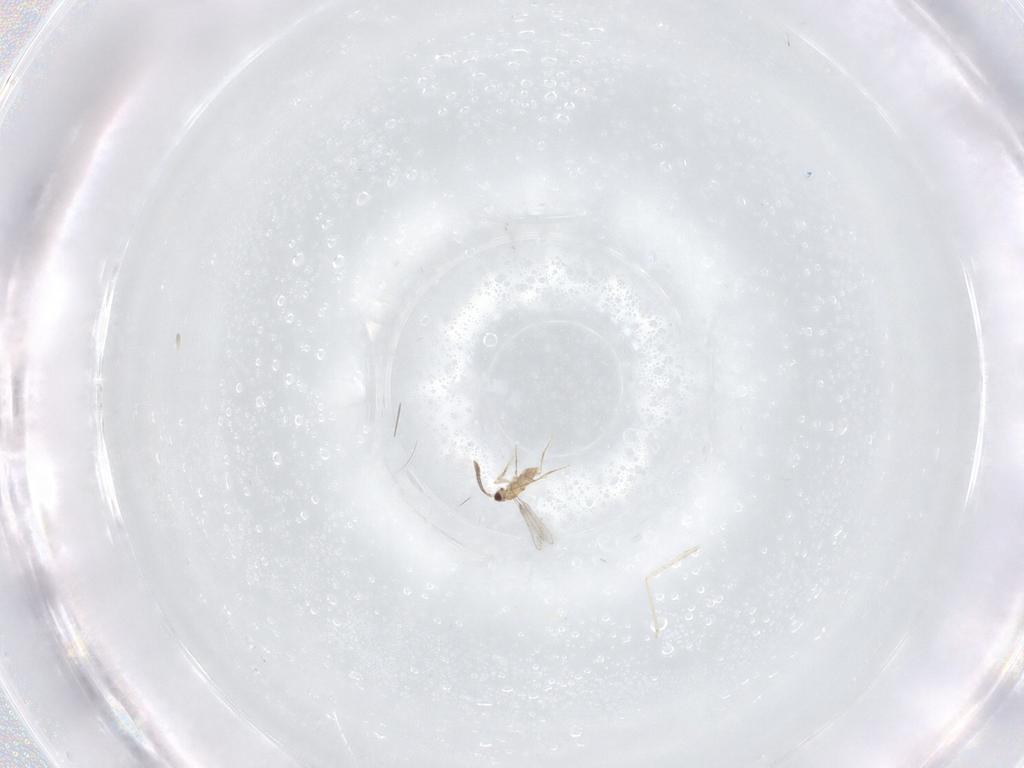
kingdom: Animalia
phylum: Arthropoda
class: Insecta
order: Hymenoptera
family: Mymaridae
